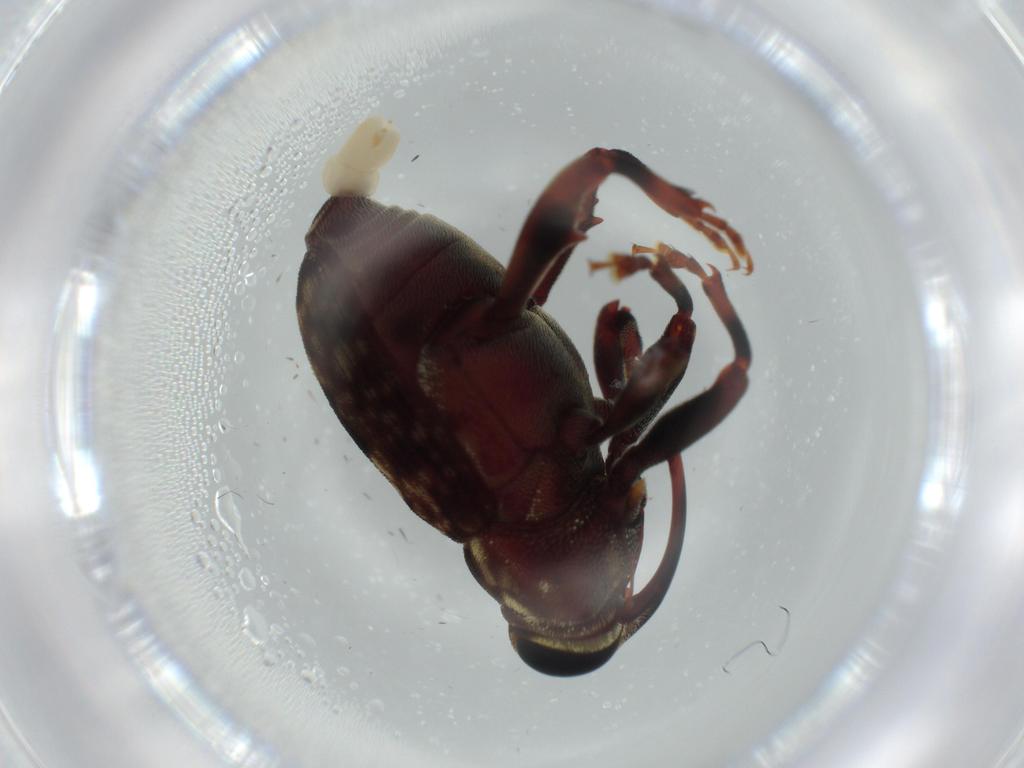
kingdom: Animalia
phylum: Arthropoda
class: Insecta
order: Coleoptera
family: Curculionidae
